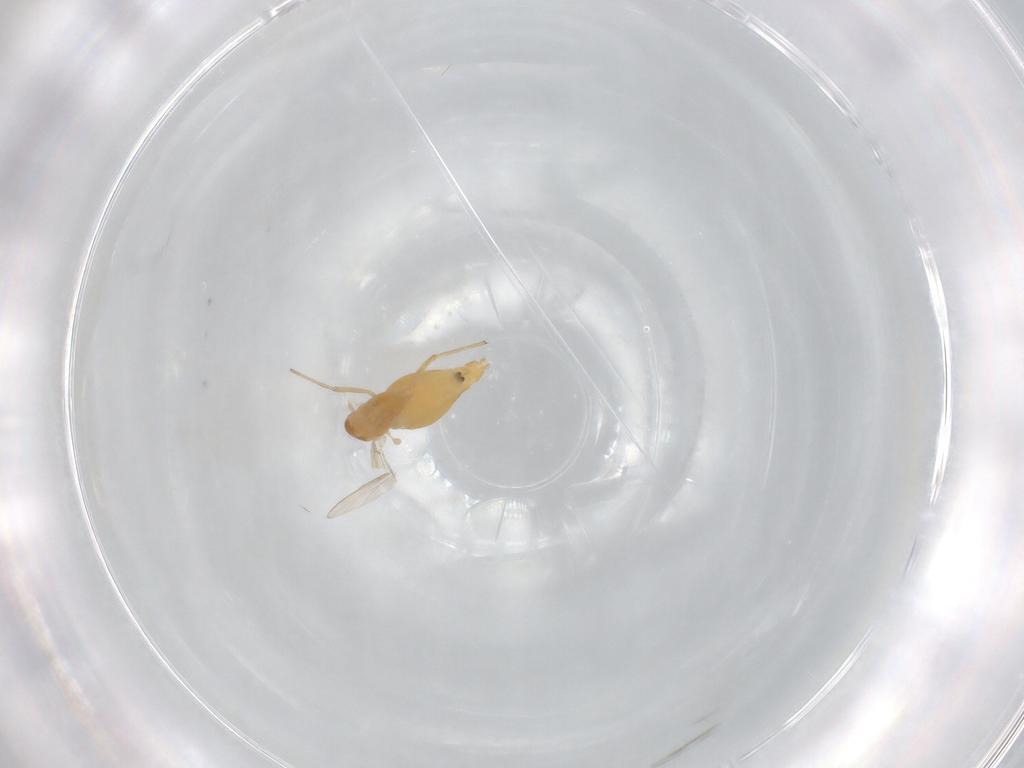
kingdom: Animalia
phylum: Arthropoda
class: Insecta
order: Diptera
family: Chironomidae
